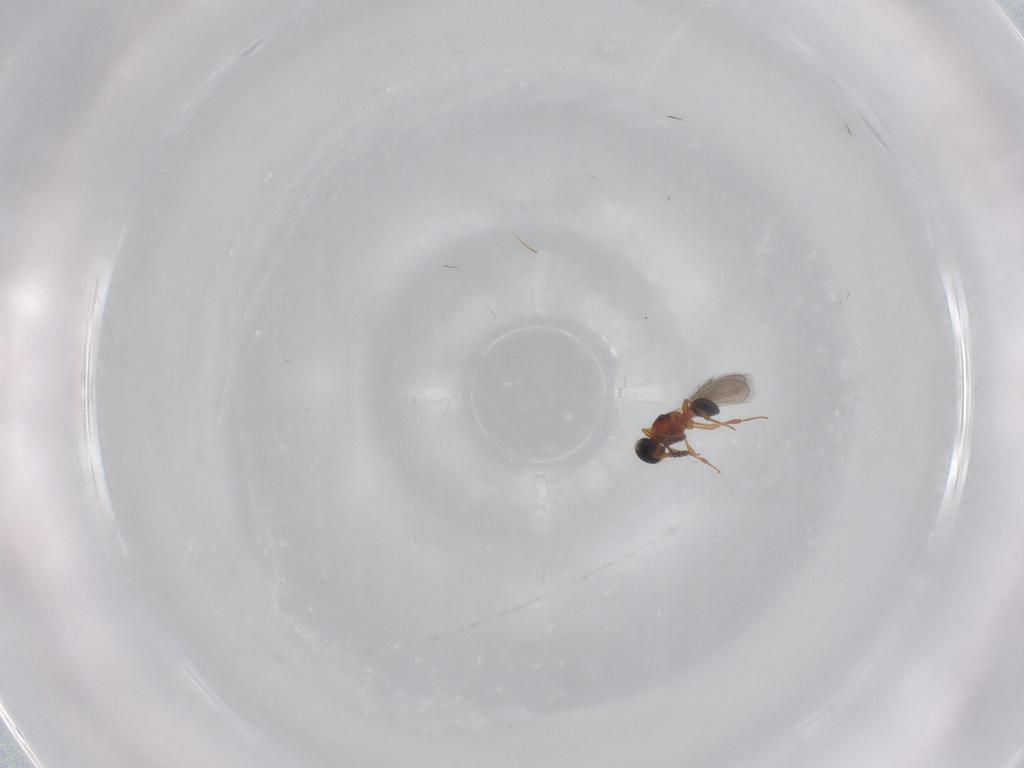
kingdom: Animalia
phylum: Arthropoda
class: Insecta
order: Hymenoptera
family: Platygastridae
